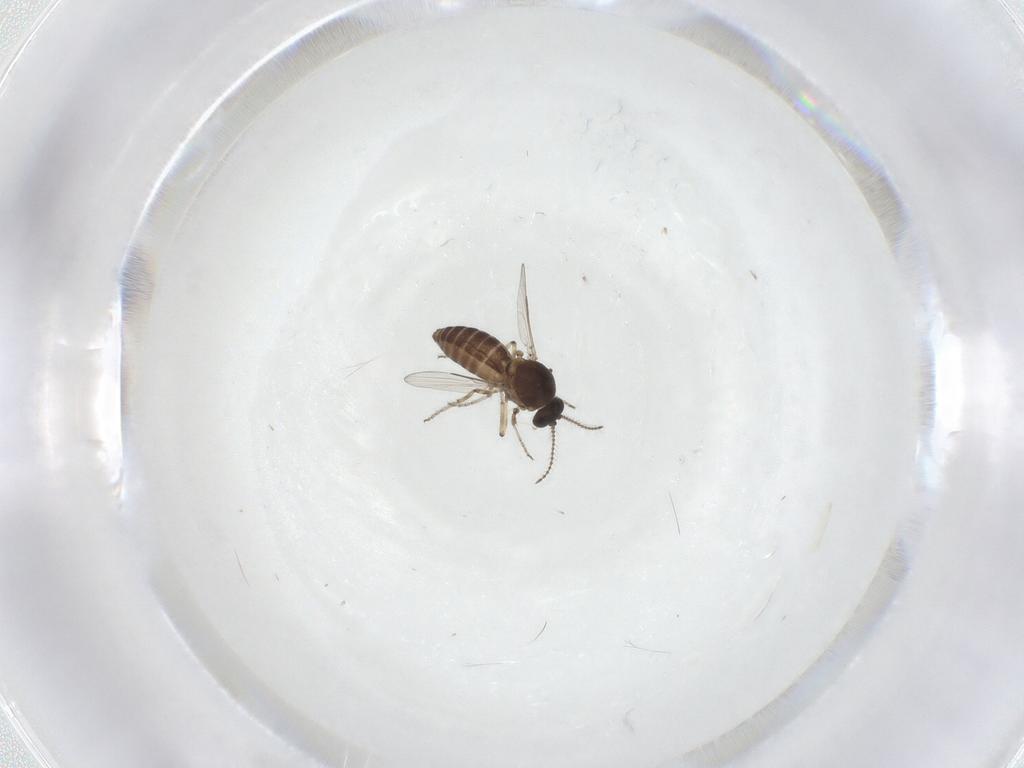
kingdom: Animalia
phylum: Arthropoda
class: Insecta
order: Diptera
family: Ceratopogonidae
